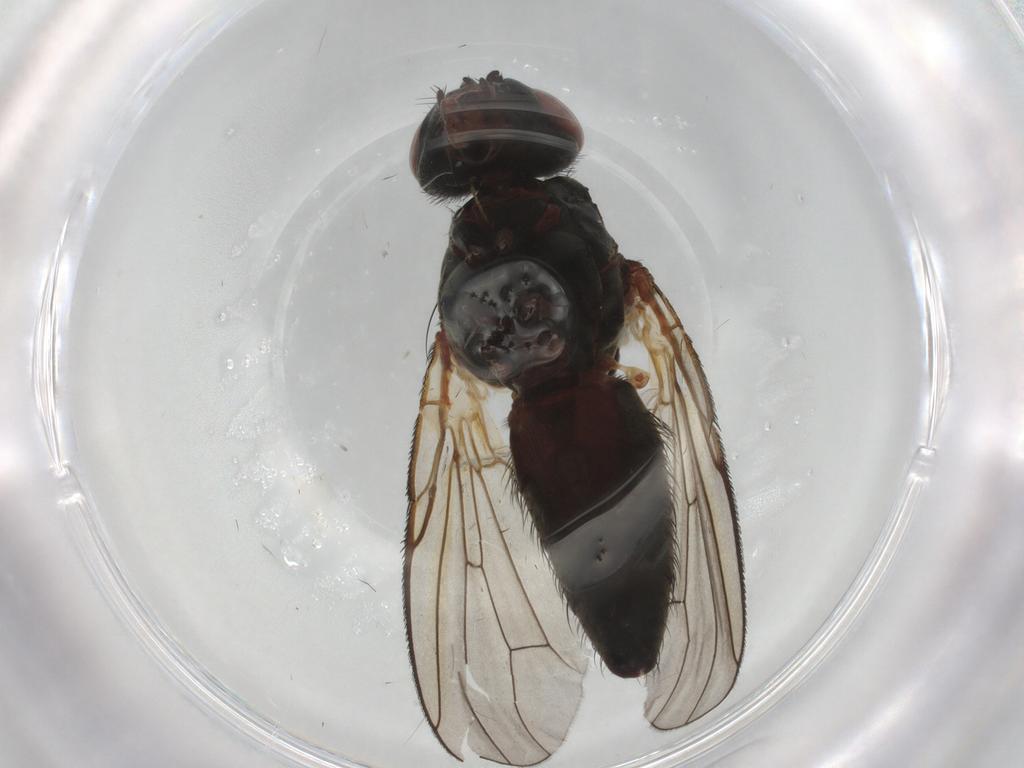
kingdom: Animalia
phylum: Arthropoda
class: Insecta
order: Diptera
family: Anthomyiidae
